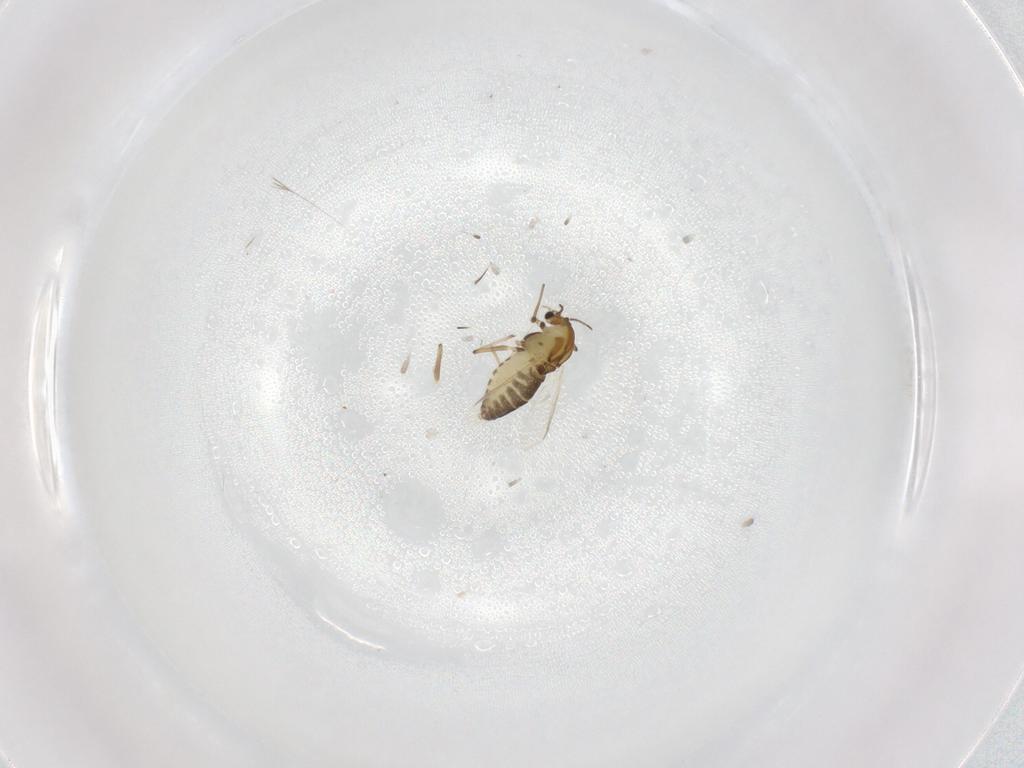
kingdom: Animalia
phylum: Arthropoda
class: Insecta
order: Diptera
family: Chironomidae
